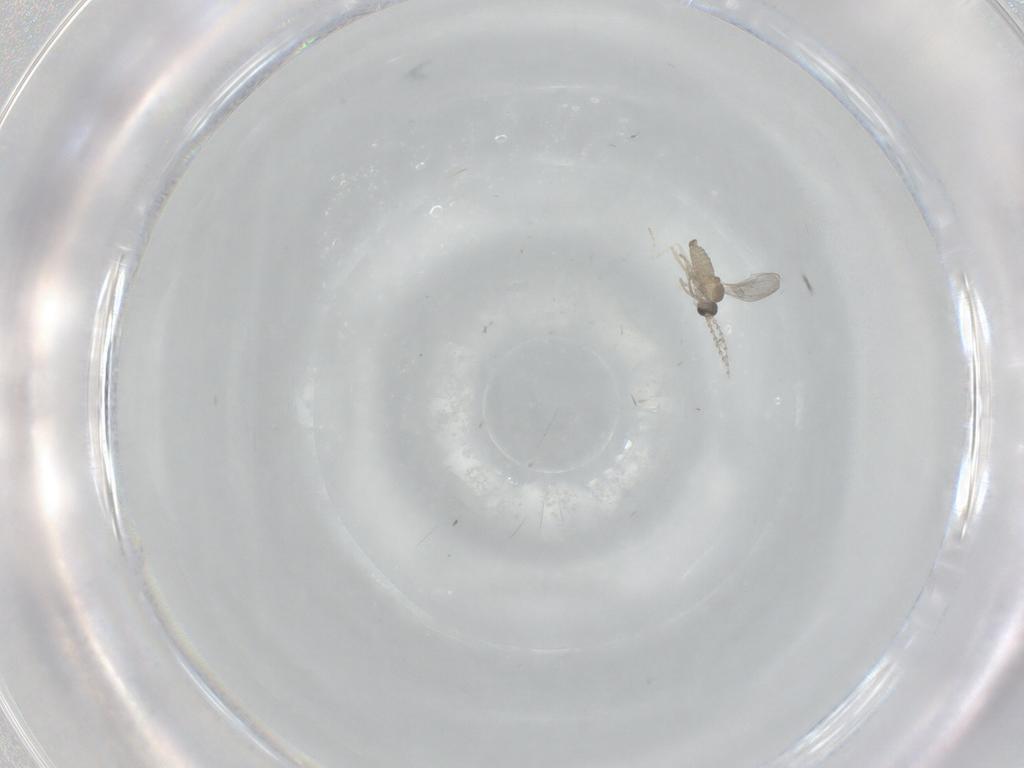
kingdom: Animalia
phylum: Arthropoda
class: Insecta
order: Diptera
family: Cecidomyiidae
